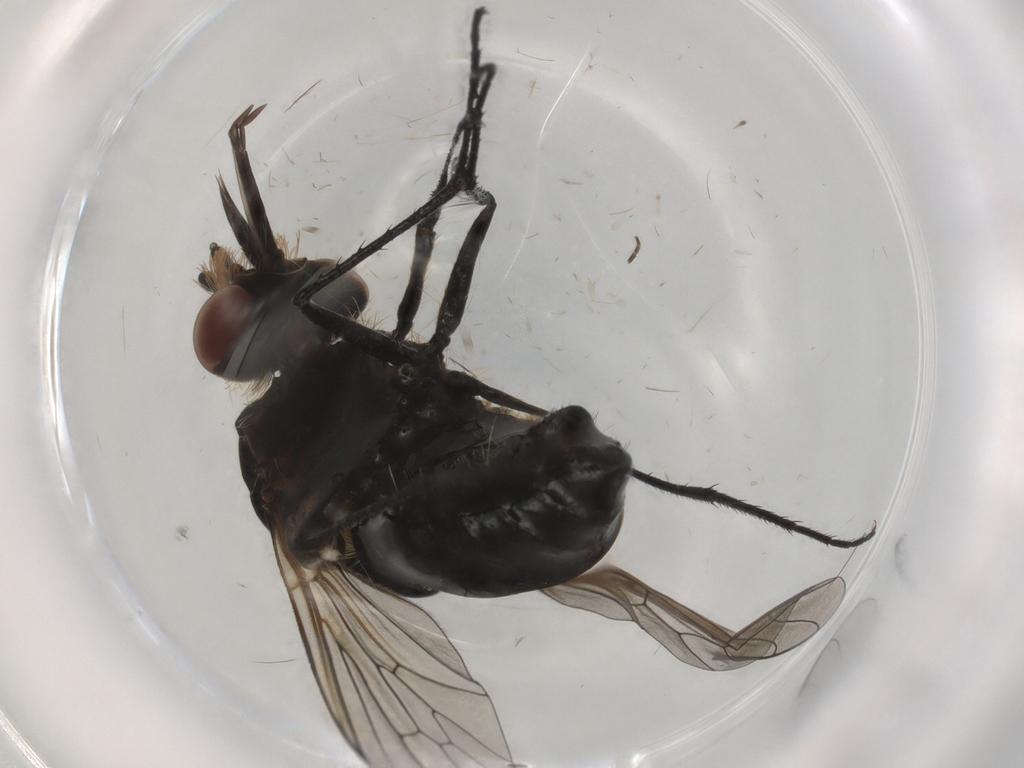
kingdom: Animalia
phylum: Arthropoda
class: Insecta
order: Diptera
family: Bombyliidae
